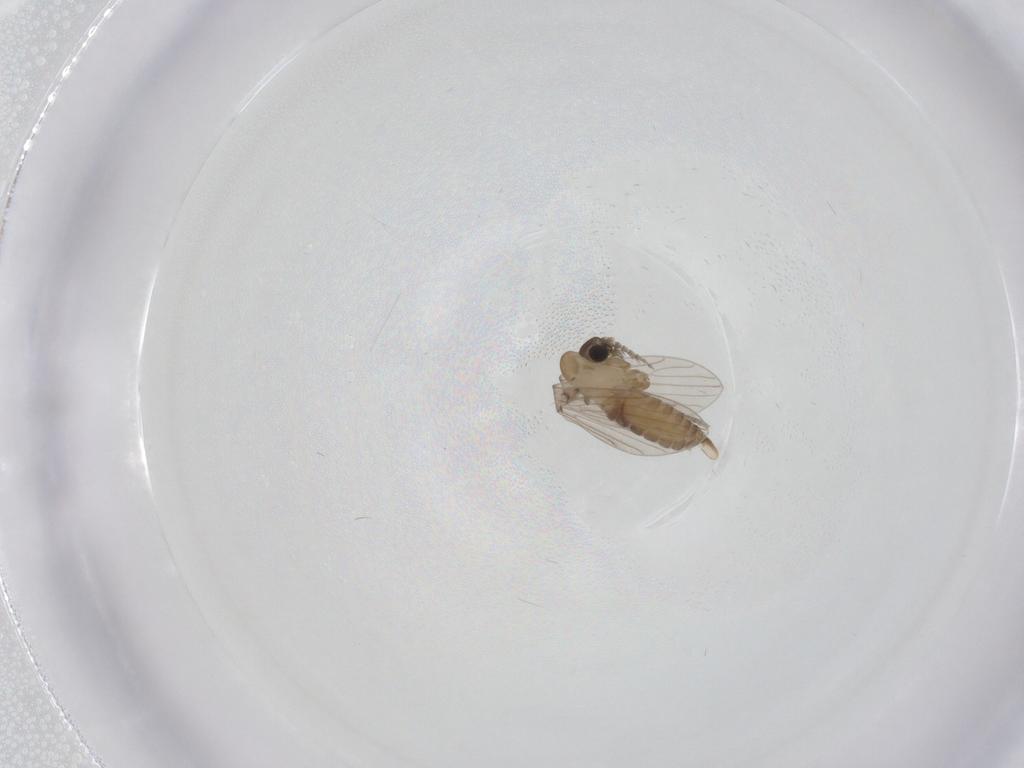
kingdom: Animalia
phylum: Arthropoda
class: Insecta
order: Diptera
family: Psychodidae
